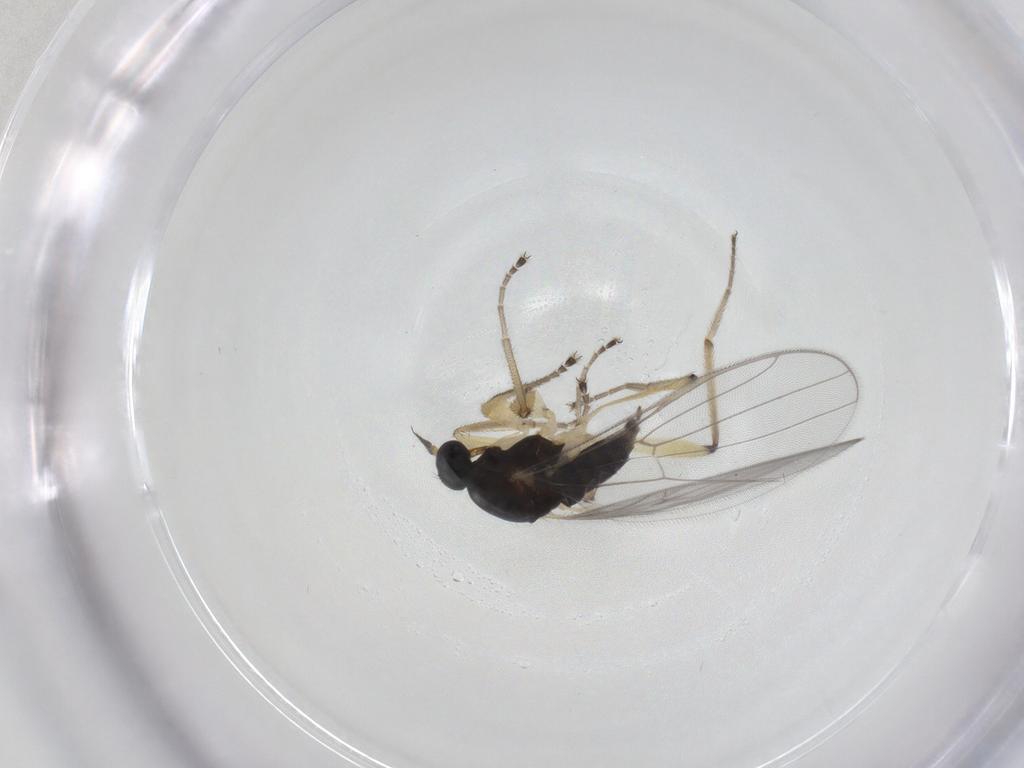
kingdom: Animalia
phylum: Arthropoda
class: Insecta
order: Diptera
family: Hybotidae
